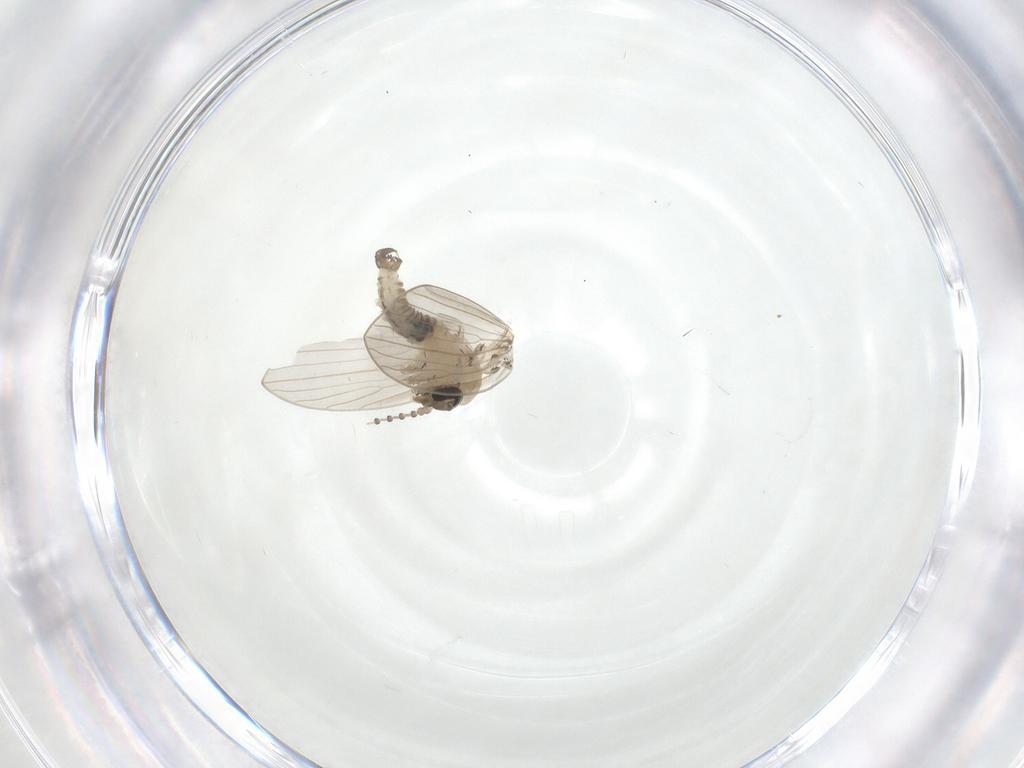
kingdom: Animalia
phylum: Arthropoda
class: Insecta
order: Diptera
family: Psychodidae
